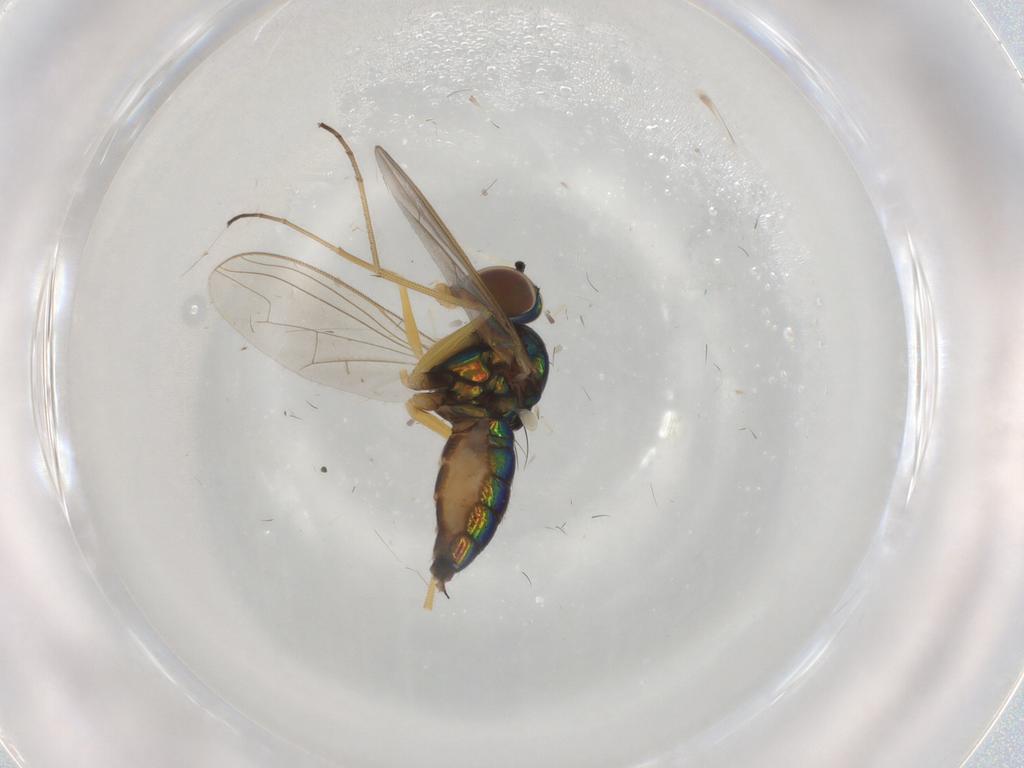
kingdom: Animalia
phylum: Arthropoda
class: Insecta
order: Diptera
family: Dolichopodidae
